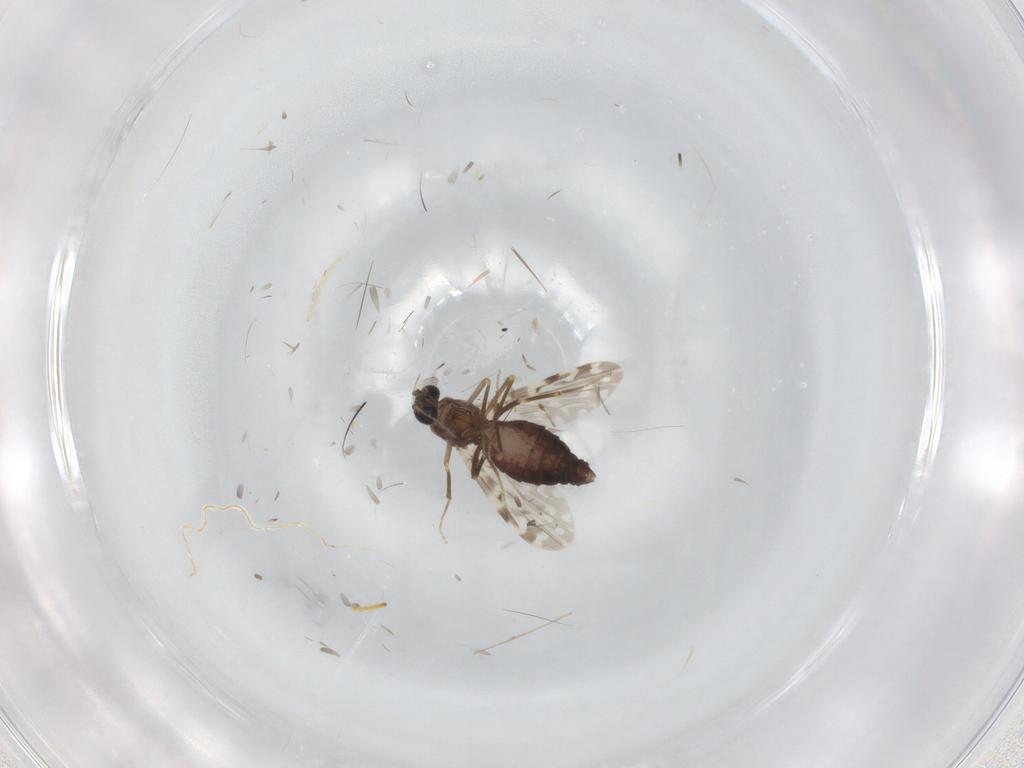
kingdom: Animalia
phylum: Arthropoda
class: Insecta
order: Diptera
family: Ceratopogonidae
